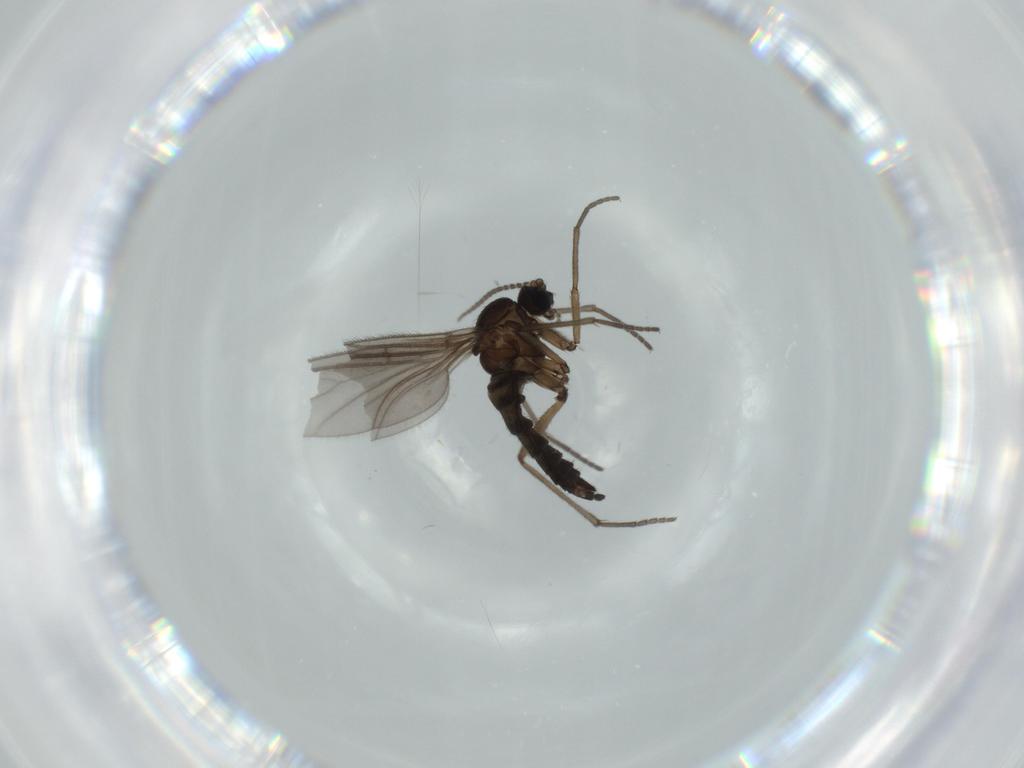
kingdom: Animalia
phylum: Arthropoda
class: Insecta
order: Diptera
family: Sciaridae
